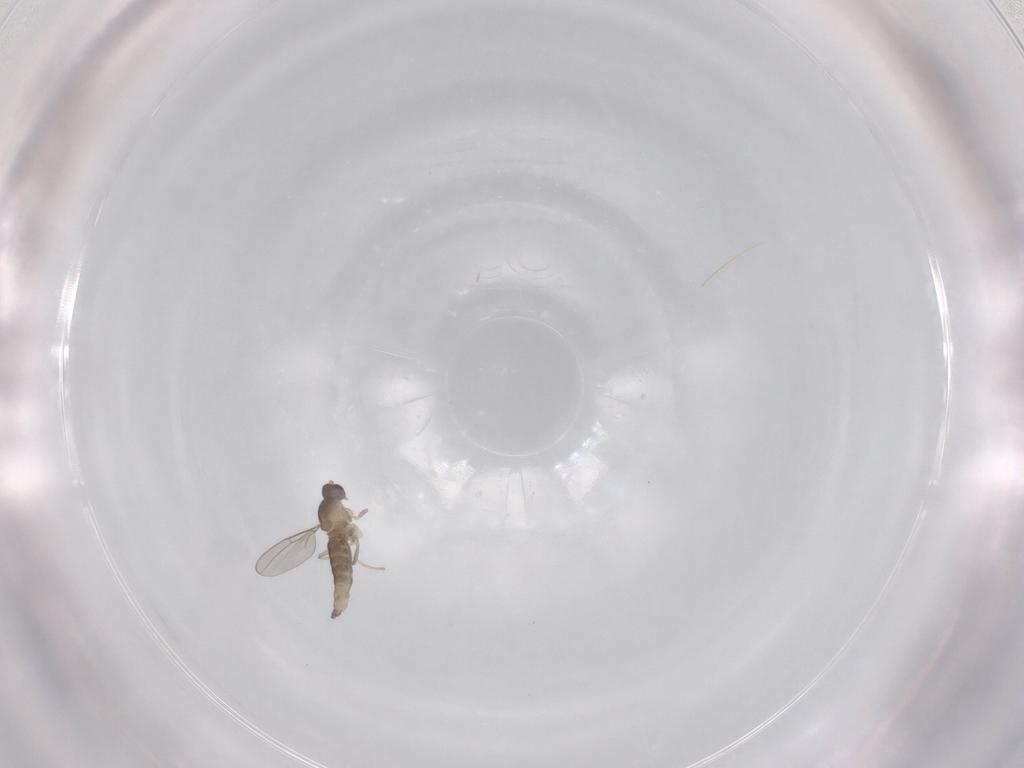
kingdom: Animalia
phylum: Arthropoda
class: Insecta
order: Diptera
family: Cecidomyiidae
